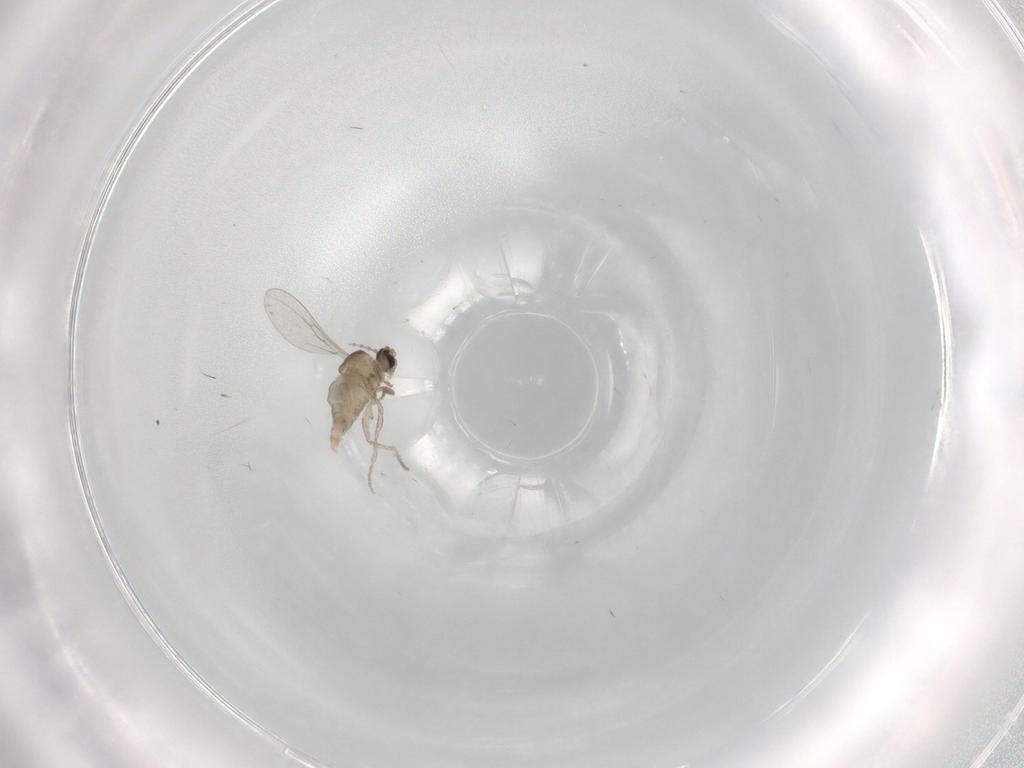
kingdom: Animalia
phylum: Arthropoda
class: Insecta
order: Diptera
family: Cecidomyiidae
